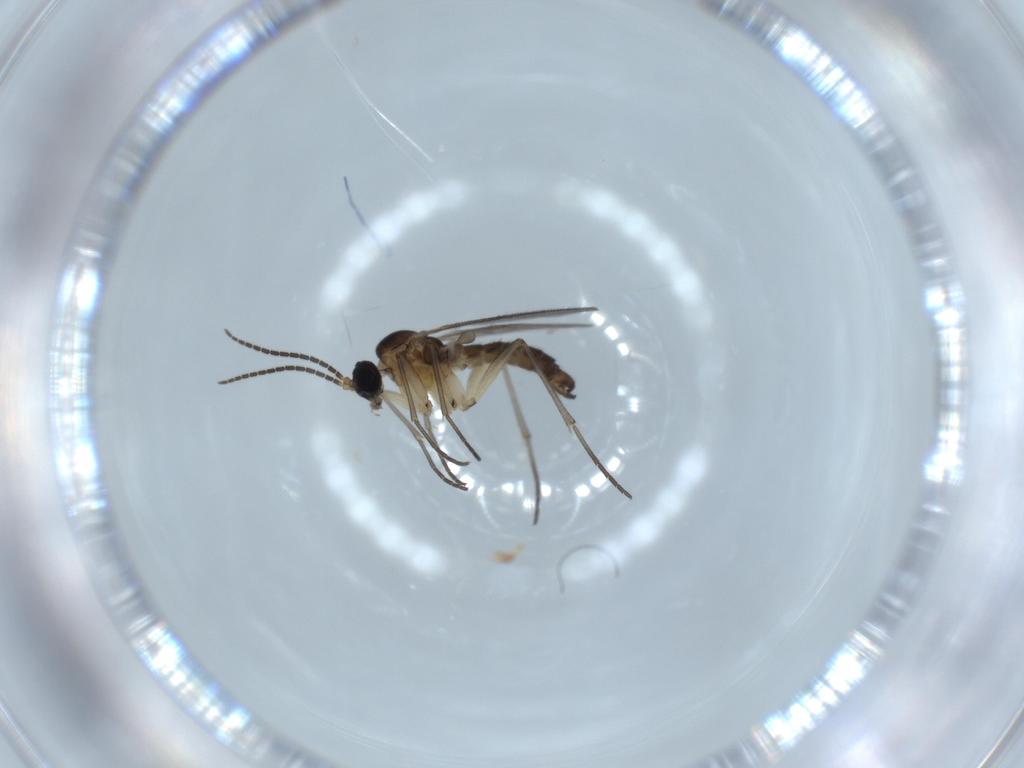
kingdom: Animalia
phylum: Arthropoda
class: Insecta
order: Diptera
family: Sciaridae
